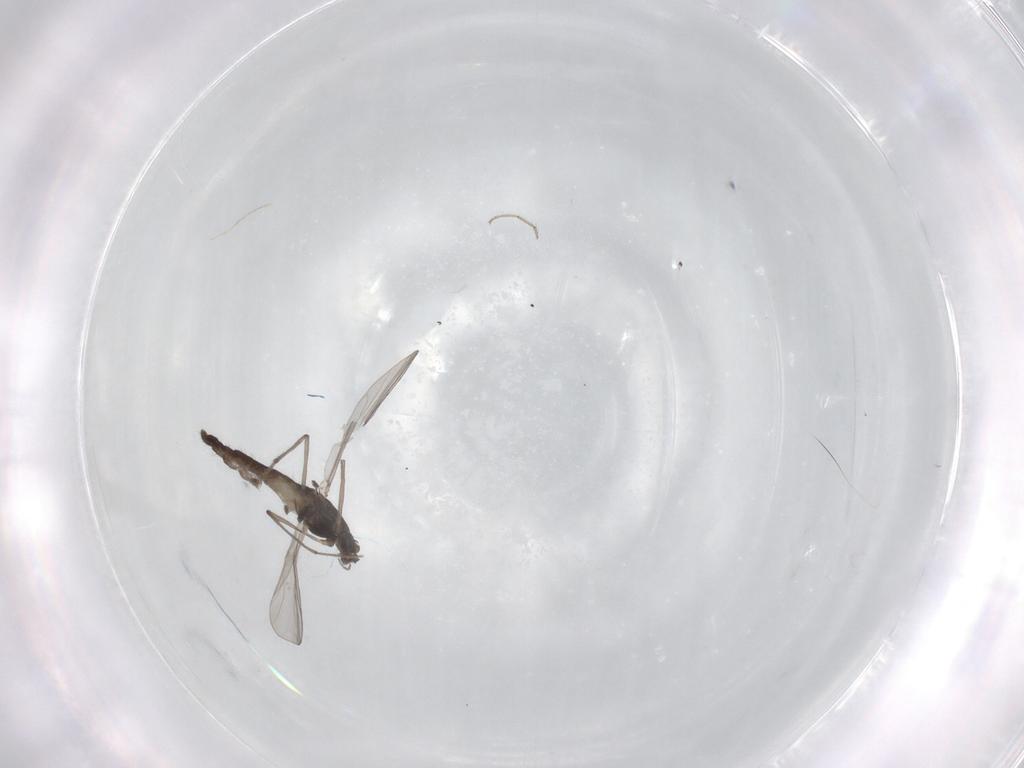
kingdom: Animalia
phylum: Arthropoda
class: Insecta
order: Diptera
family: Chironomidae
